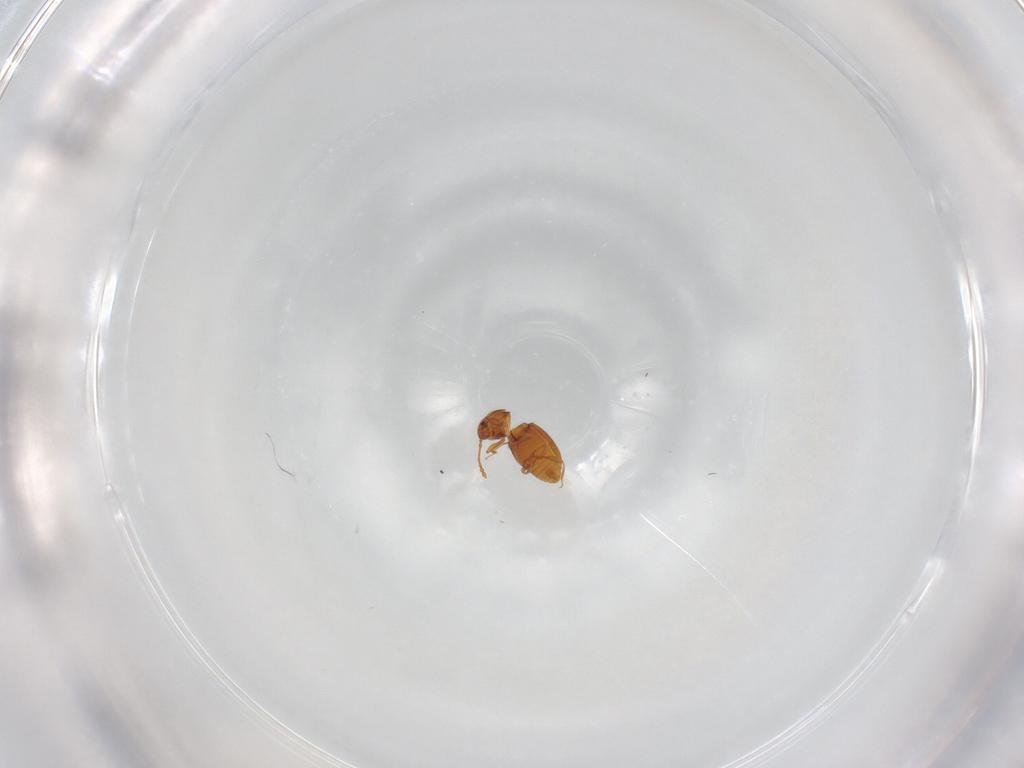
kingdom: Animalia
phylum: Arthropoda
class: Insecta
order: Coleoptera
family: Staphylinidae
